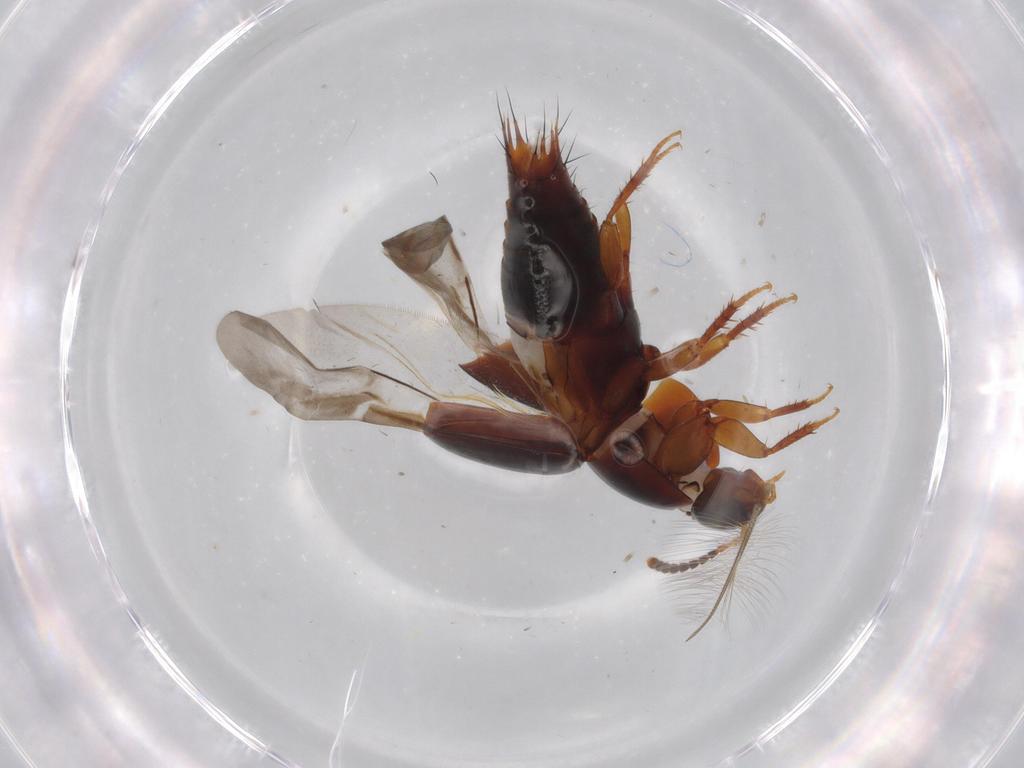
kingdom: Animalia
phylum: Arthropoda
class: Insecta
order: Coleoptera
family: Staphylinidae
